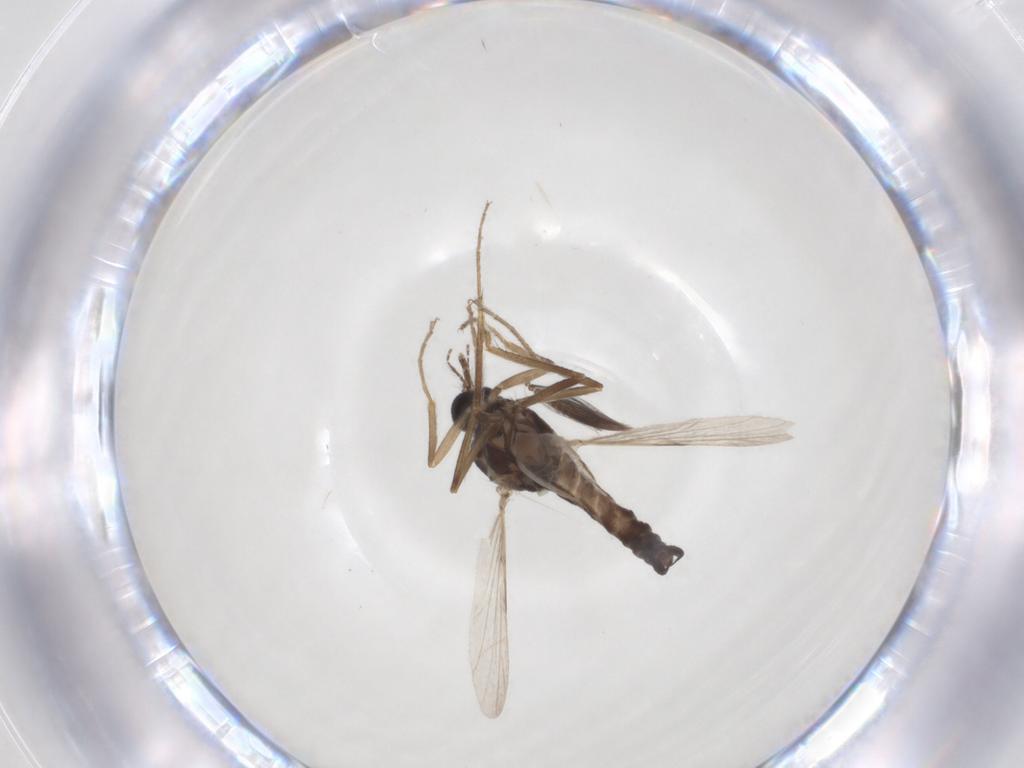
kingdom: Animalia
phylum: Arthropoda
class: Insecta
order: Diptera
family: Ceratopogonidae
